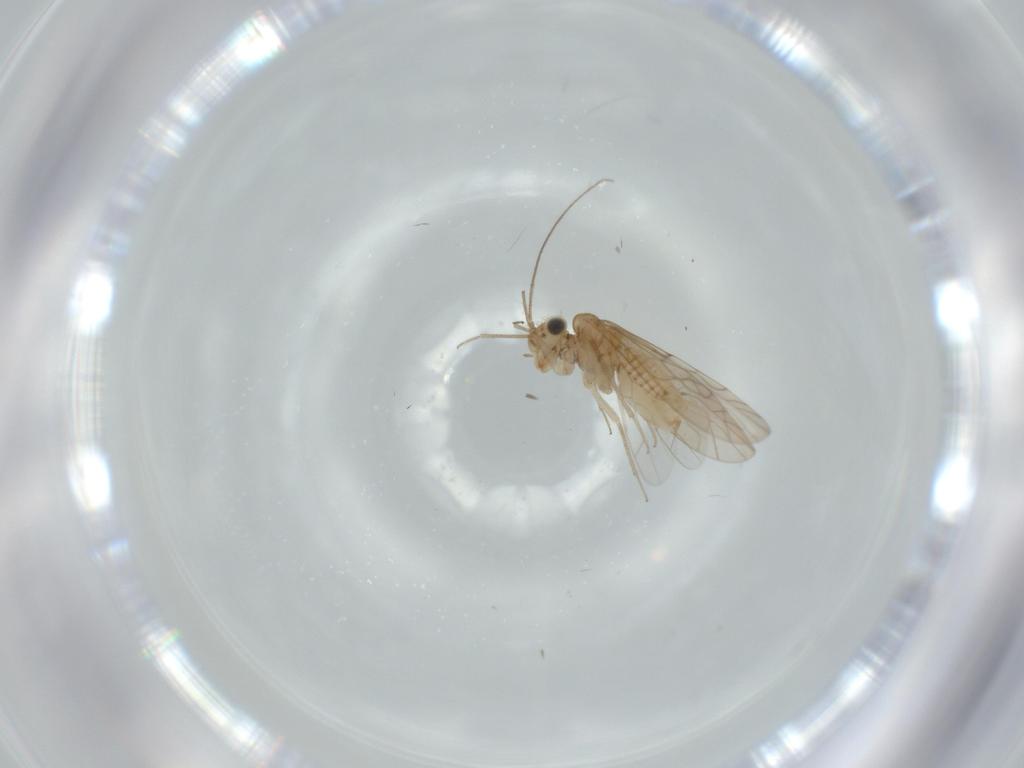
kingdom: Animalia
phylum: Arthropoda
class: Insecta
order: Psocodea
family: Lachesillidae
